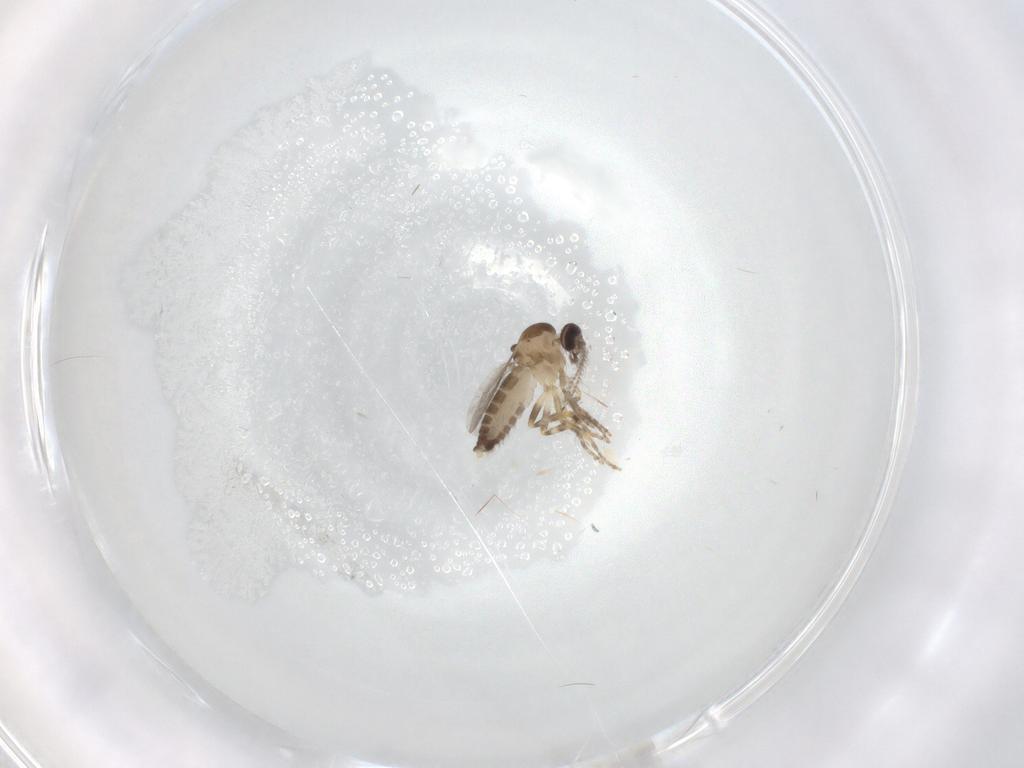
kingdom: Animalia
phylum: Arthropoda
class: Insecta
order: Diptera
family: Ceratopogonidae
